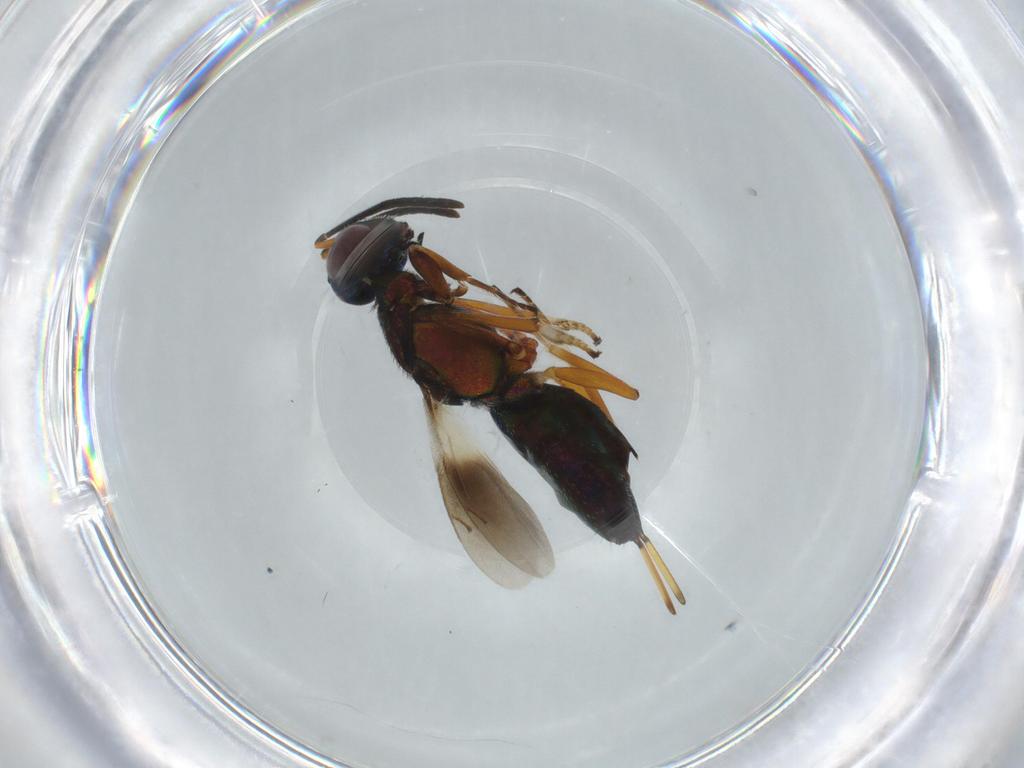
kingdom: Animalia
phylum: Arthropoda
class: Insecta
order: Hymenoptera
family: Eupelmidae
